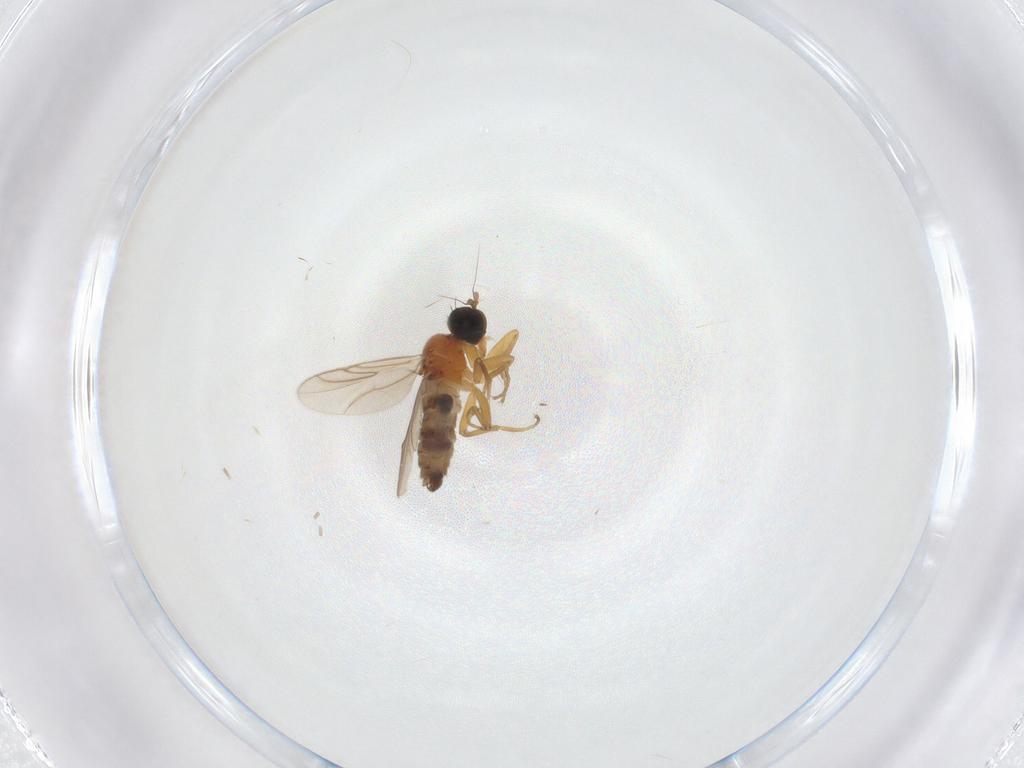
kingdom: Animalia
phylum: Arthropoda
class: Insecta
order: Diptera
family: Hybotidae
